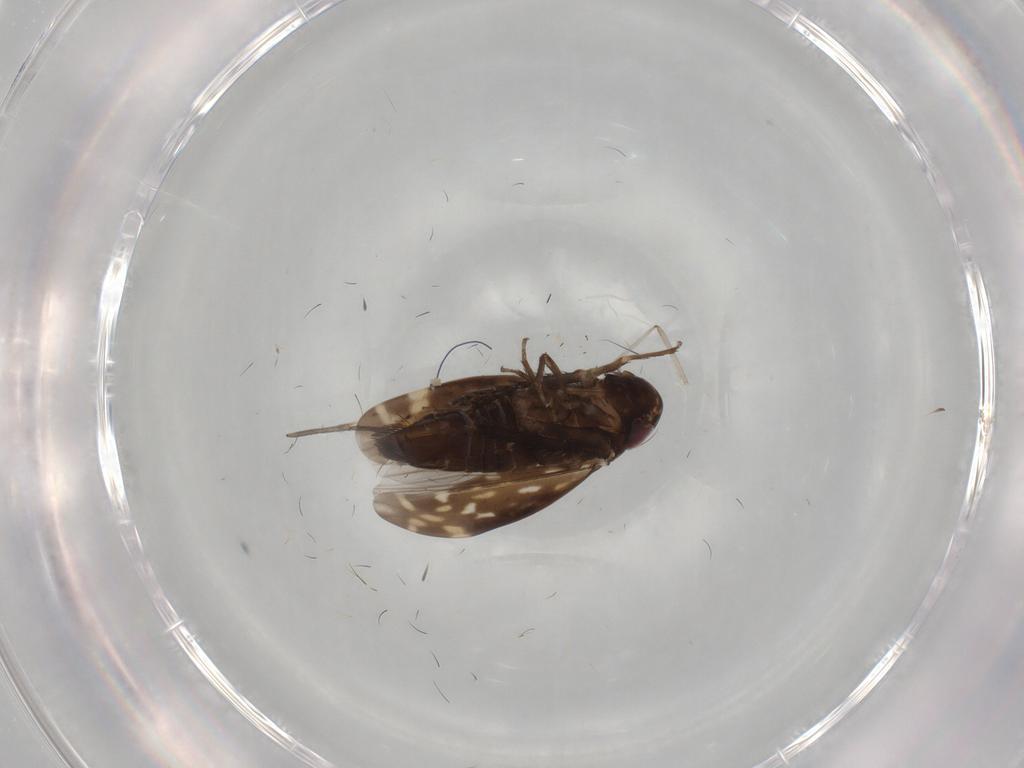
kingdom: Animalia
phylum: Arthropoda
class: Insecta
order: Hemiptera
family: Cicadellidae
